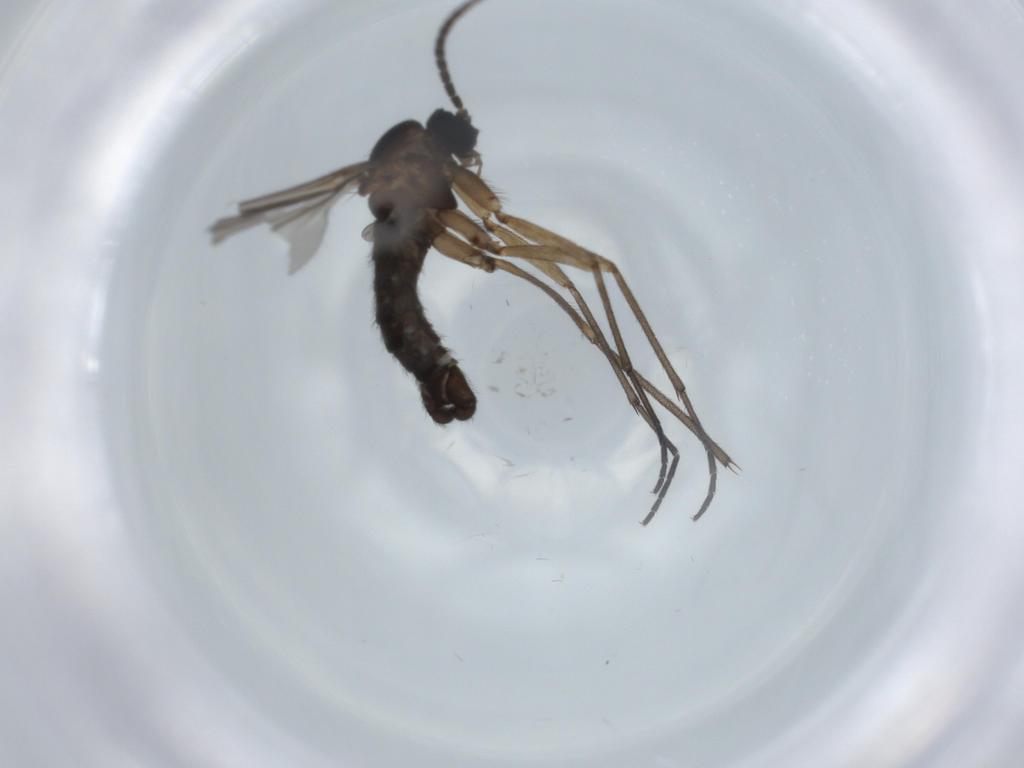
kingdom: Animalia
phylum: Arthropoda
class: Insecta
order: Diptera
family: Sciaridae
